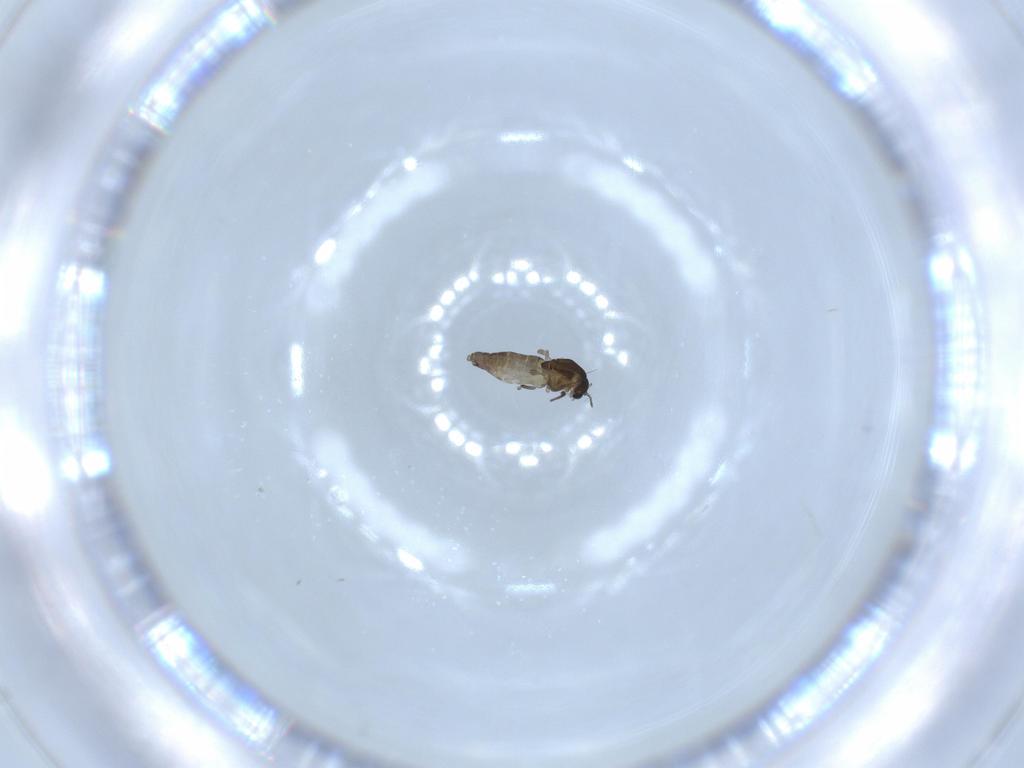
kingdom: Animalia
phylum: Arthropoda
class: Insecta
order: Diptera
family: Chironomidae
